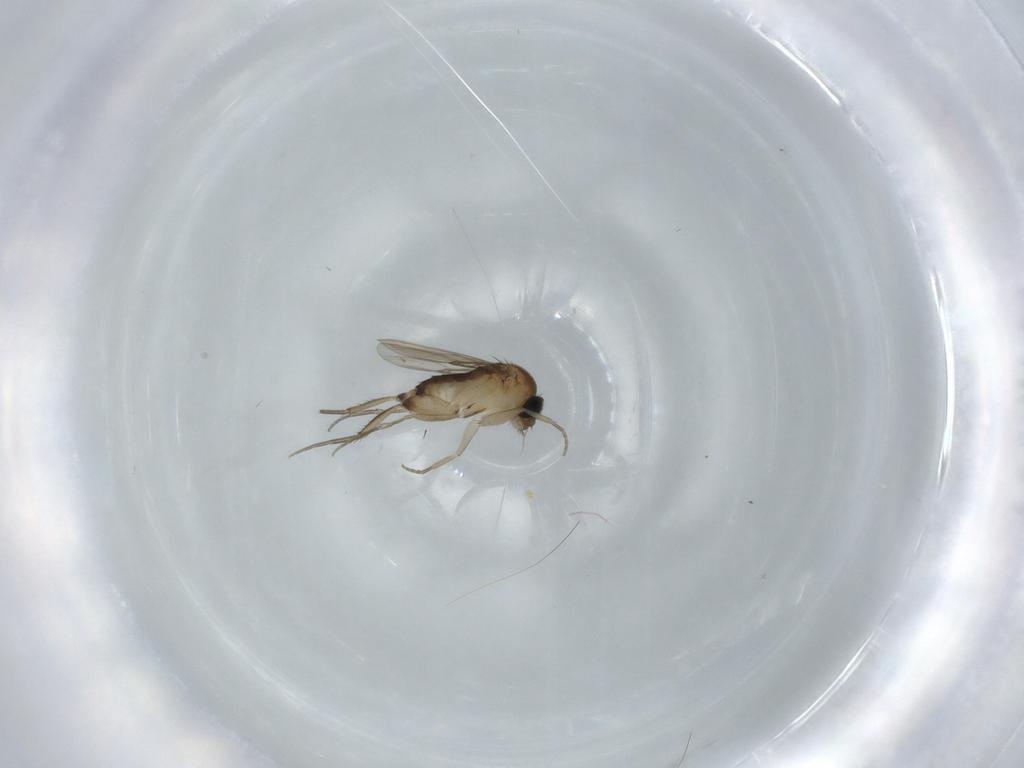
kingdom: Animalia
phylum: Arthropoda
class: Insecta
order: Diptera
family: Phoridae
